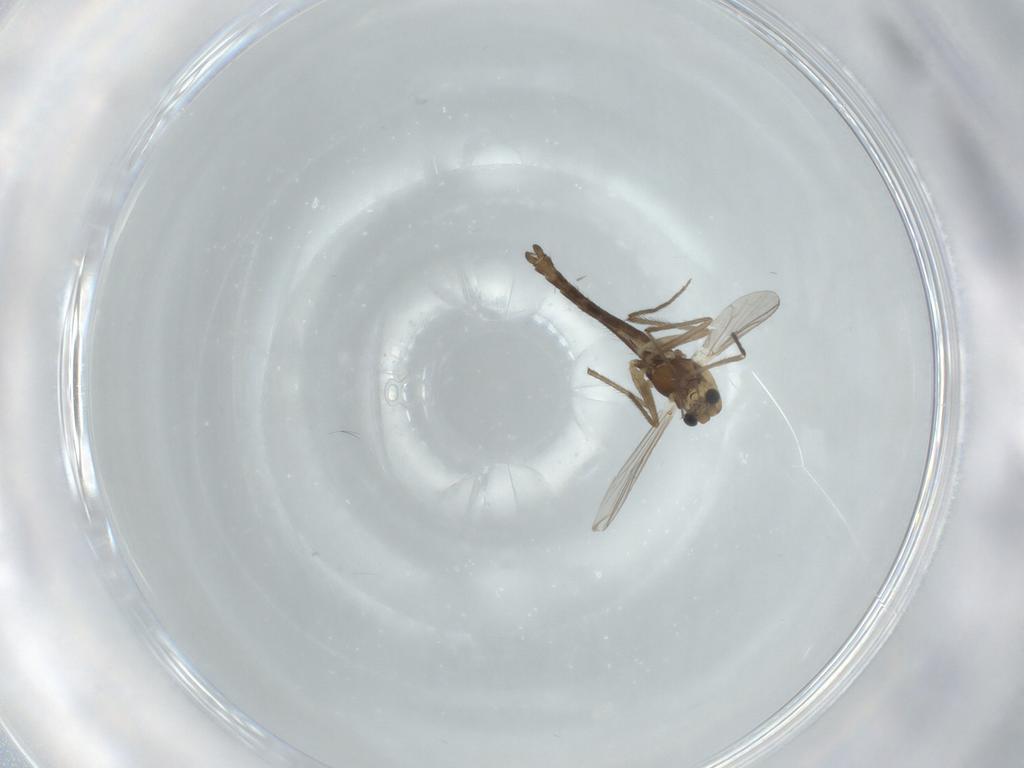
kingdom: Animalia
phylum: Arthropoda
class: Insecta
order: Diptera
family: Chironomidae
